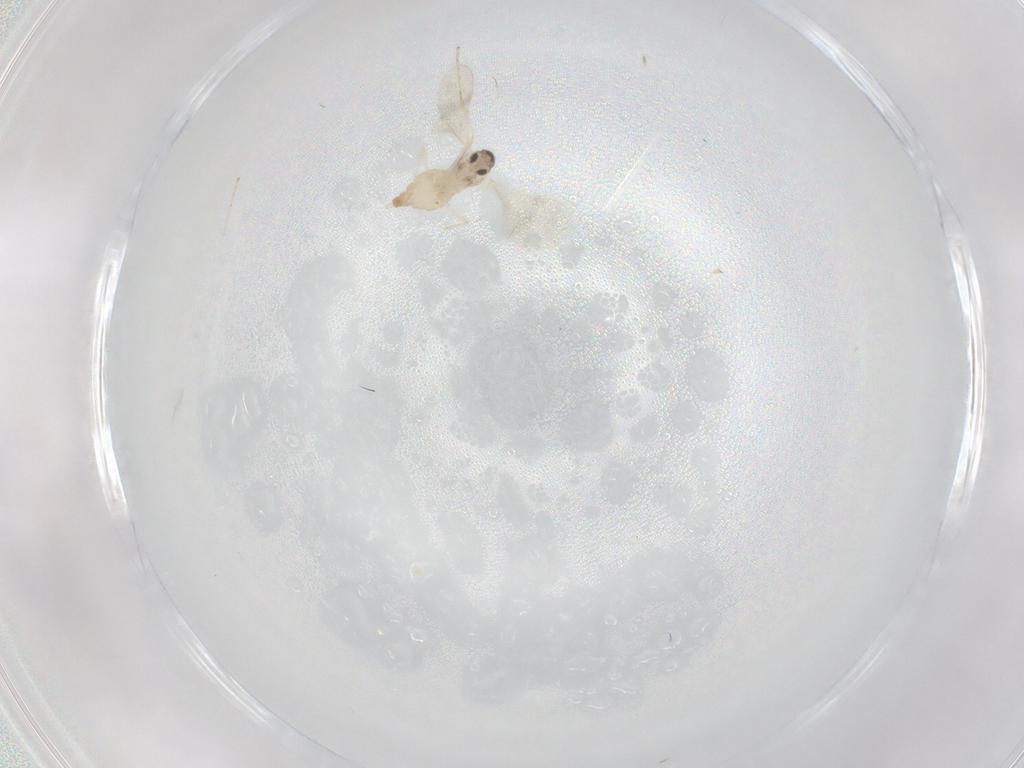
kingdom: Animalia
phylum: Arthropoda
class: Insecta
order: Diptera
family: Cecidomyiidae
